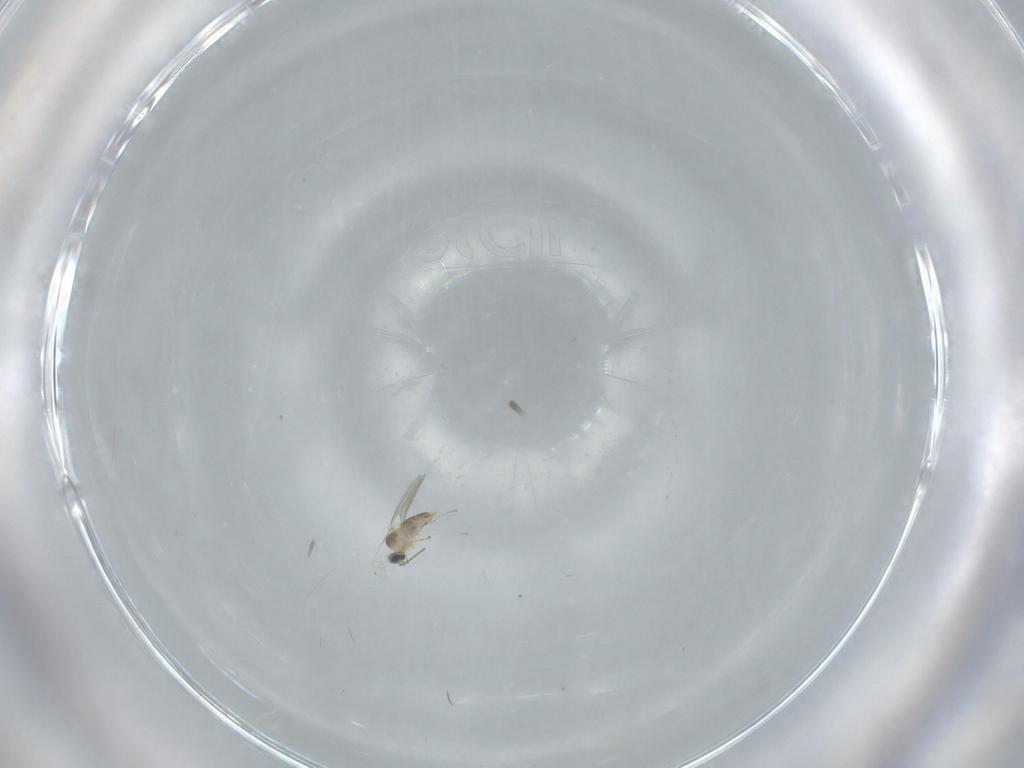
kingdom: Animalia
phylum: Arthropoda
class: Insecta
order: Diptera
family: Cecidomyiidae
